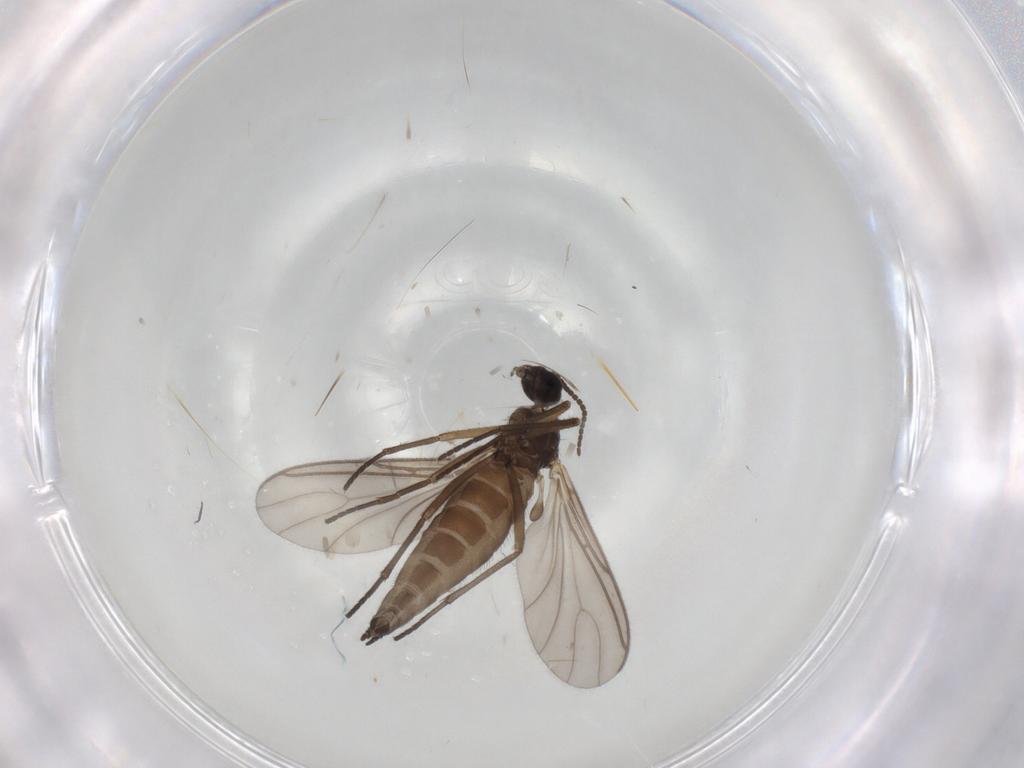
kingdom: Animalia
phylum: Arthropoda
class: Insecta
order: Diptera
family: Sciaridae
